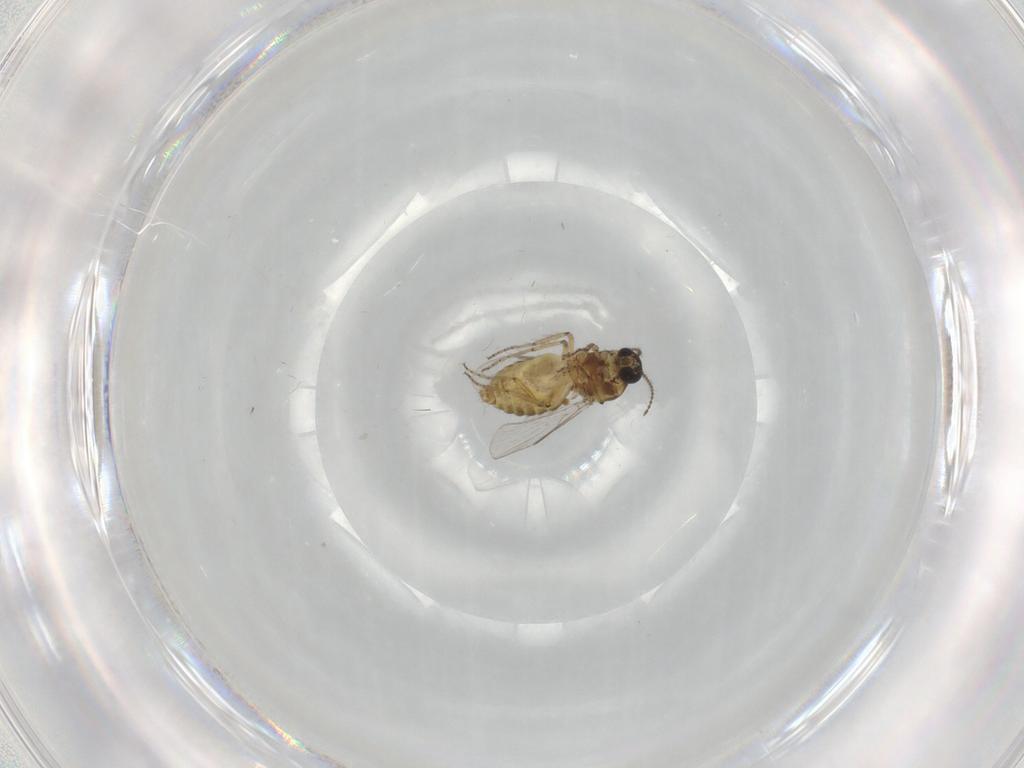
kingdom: Animalia
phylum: Arthropoda
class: Insecta
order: Diptera
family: Ceratopogonidae
